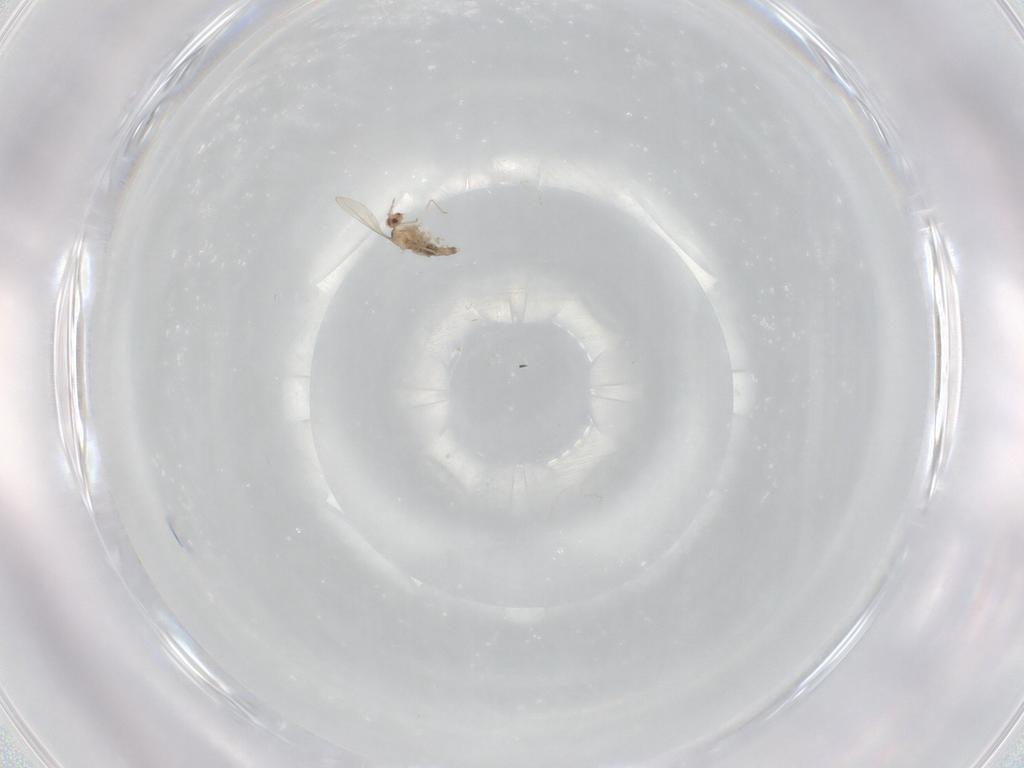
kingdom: Animalia
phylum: Arthropoda
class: Insecta
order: Diptera
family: Cecidomyiidae
